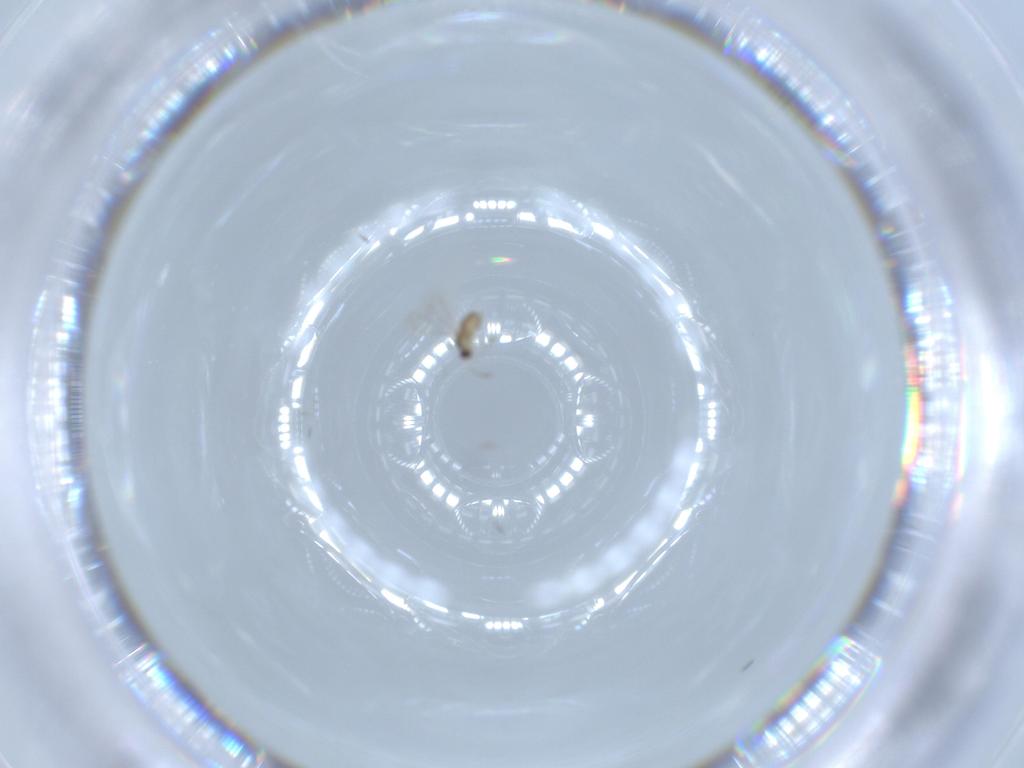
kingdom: Animalia
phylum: Arthropoda
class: Insecta
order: Hymenoptera
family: Mymaridae
